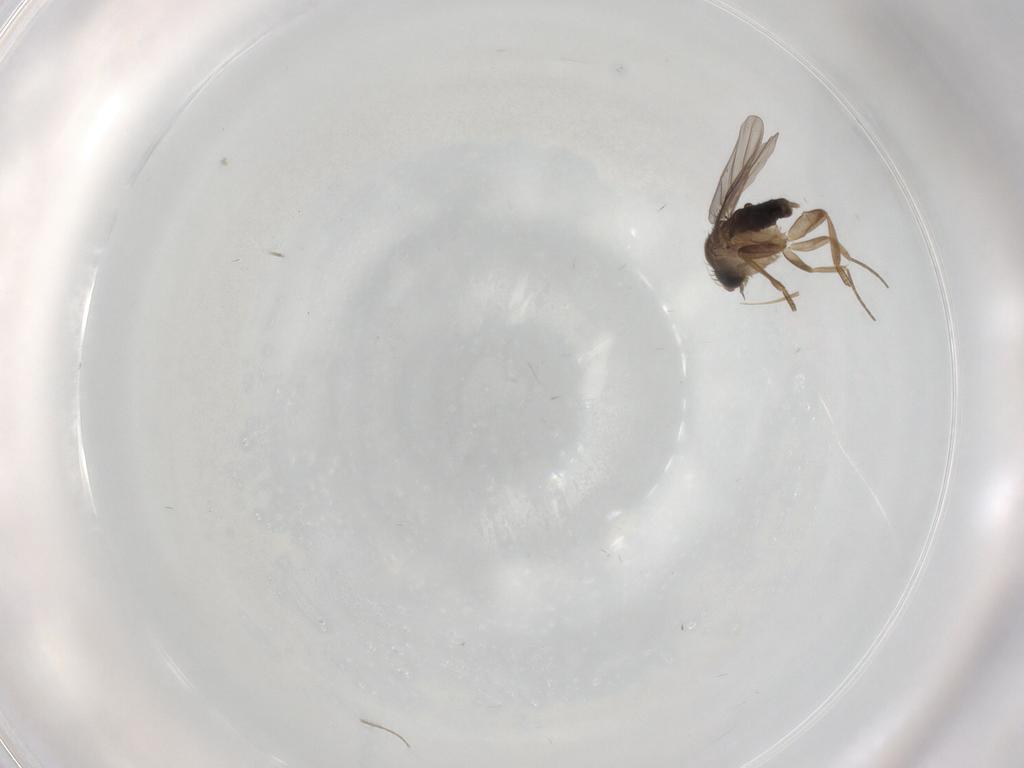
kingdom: Animalia
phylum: Arthropoda
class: Insecta
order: Diptera
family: Chironomidae
